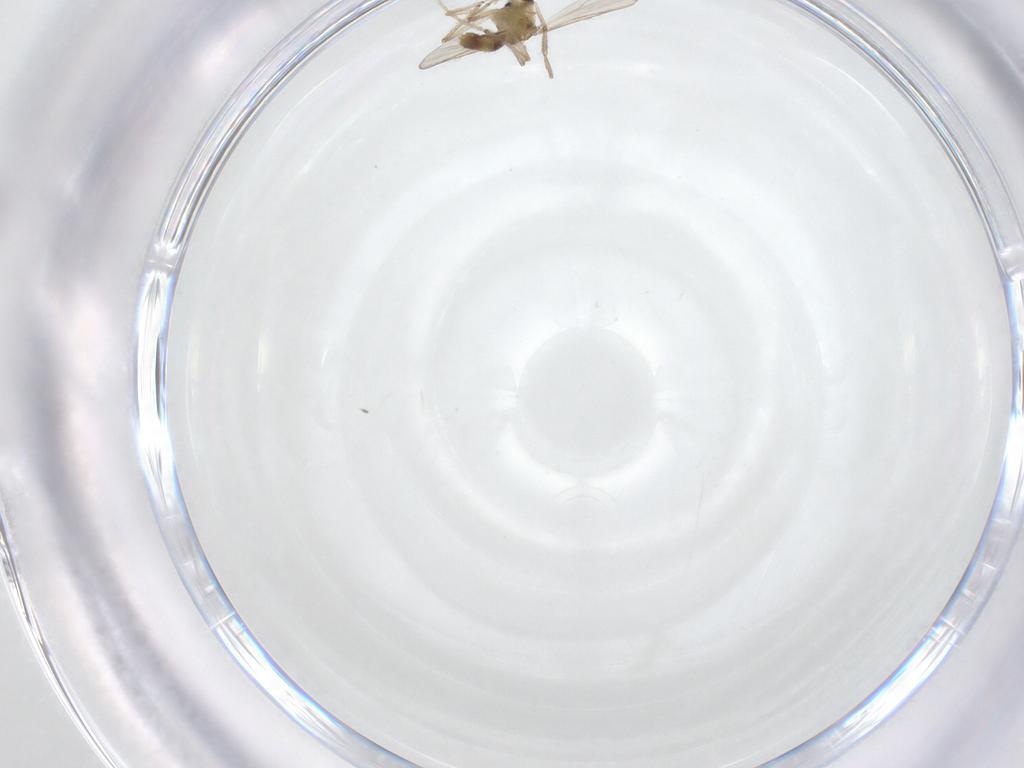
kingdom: Animalia
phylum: Arthropoda
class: Insecta
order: Diptera
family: Chironomidae
